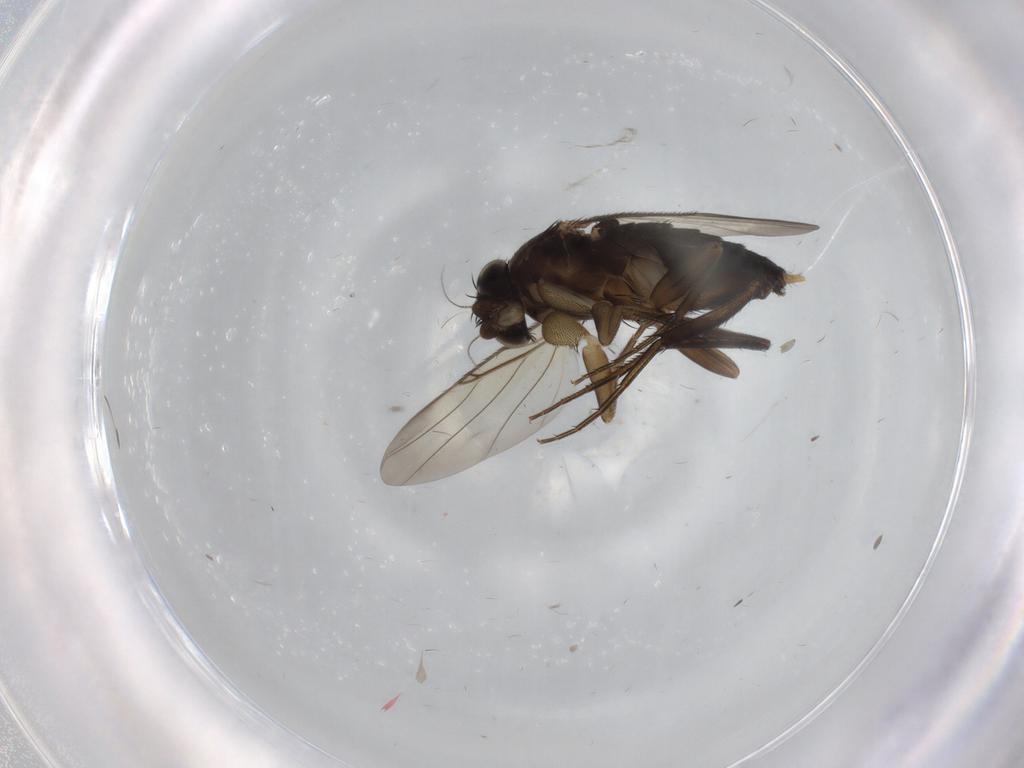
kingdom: Animalia
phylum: Arthropoda
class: Insecta
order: Diptera
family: Phoridae
